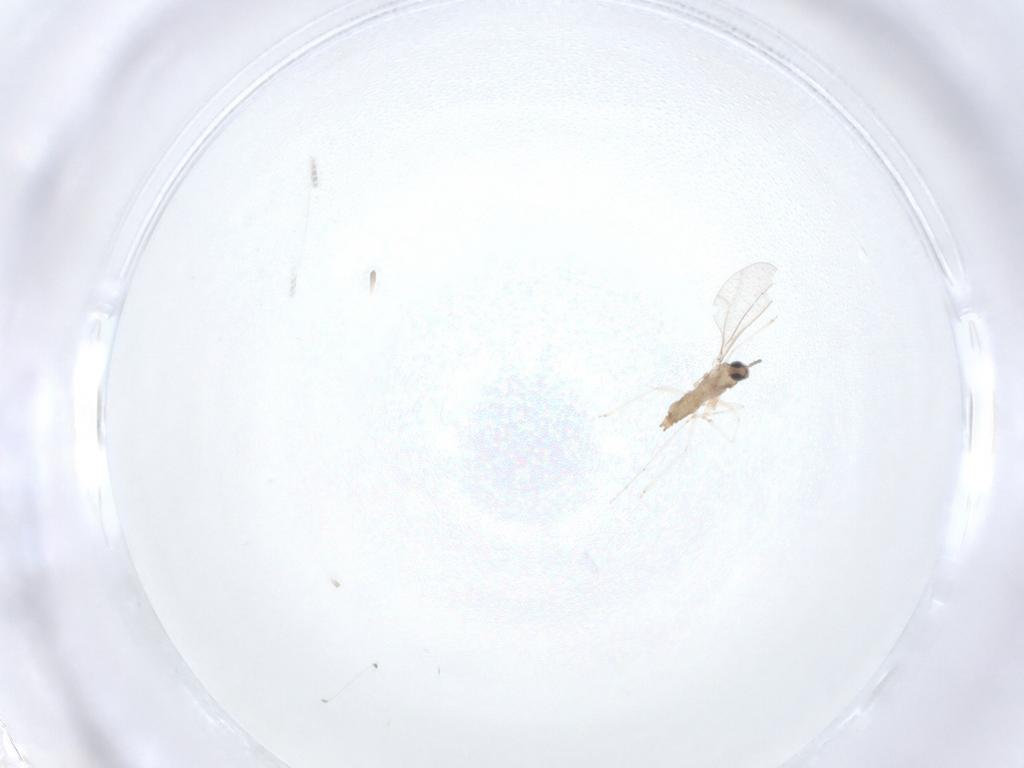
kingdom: Animalia
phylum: Arthropoda
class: Insecta
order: Diptera
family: Cecidomyiidae
